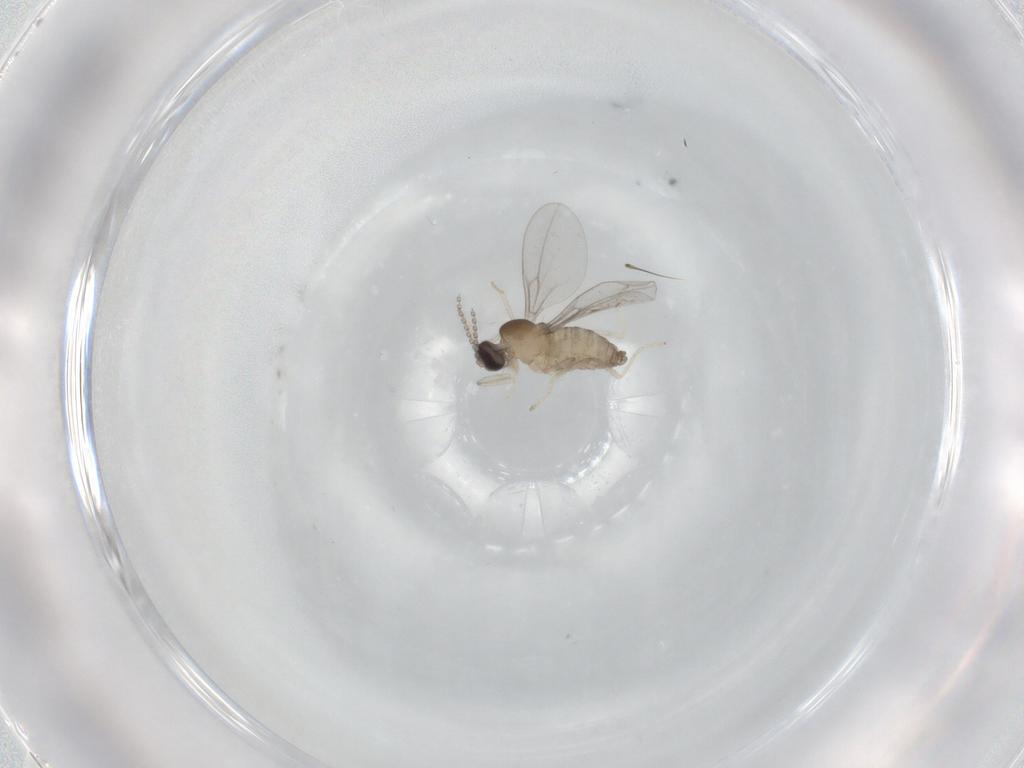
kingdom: Animalia
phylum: Arthropoda
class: Insecta
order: Diptera
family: Cecidomyiidae
